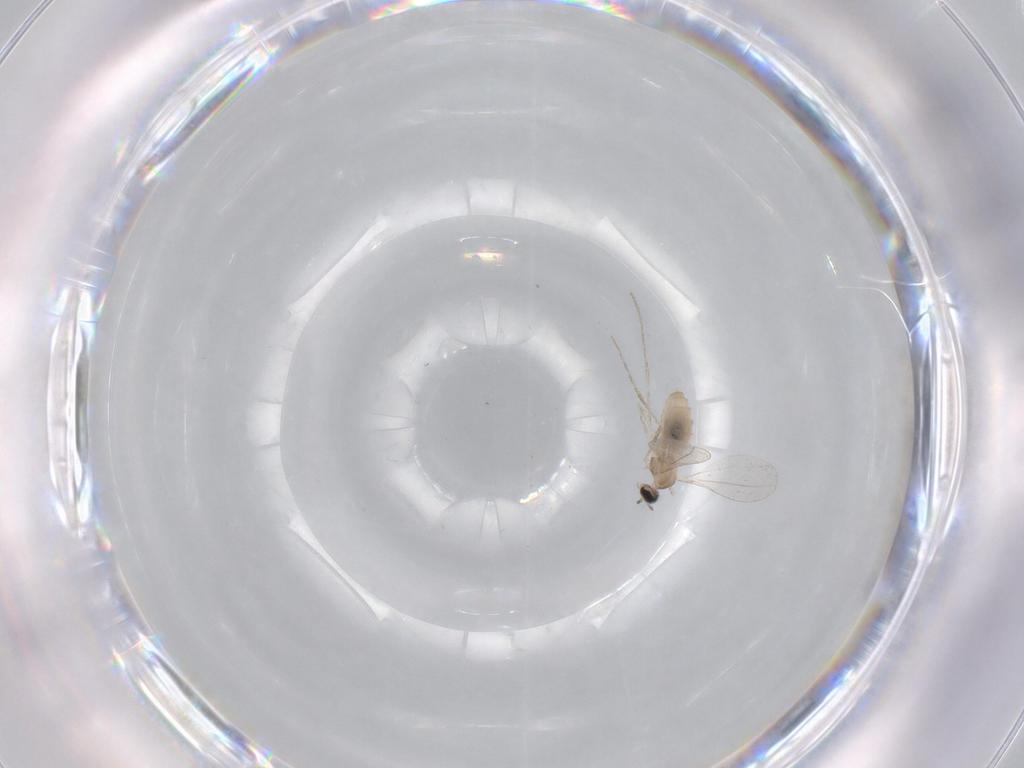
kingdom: Animalia
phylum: Arthropoda
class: Insecta
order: Diptera
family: Cecidomyiidae
